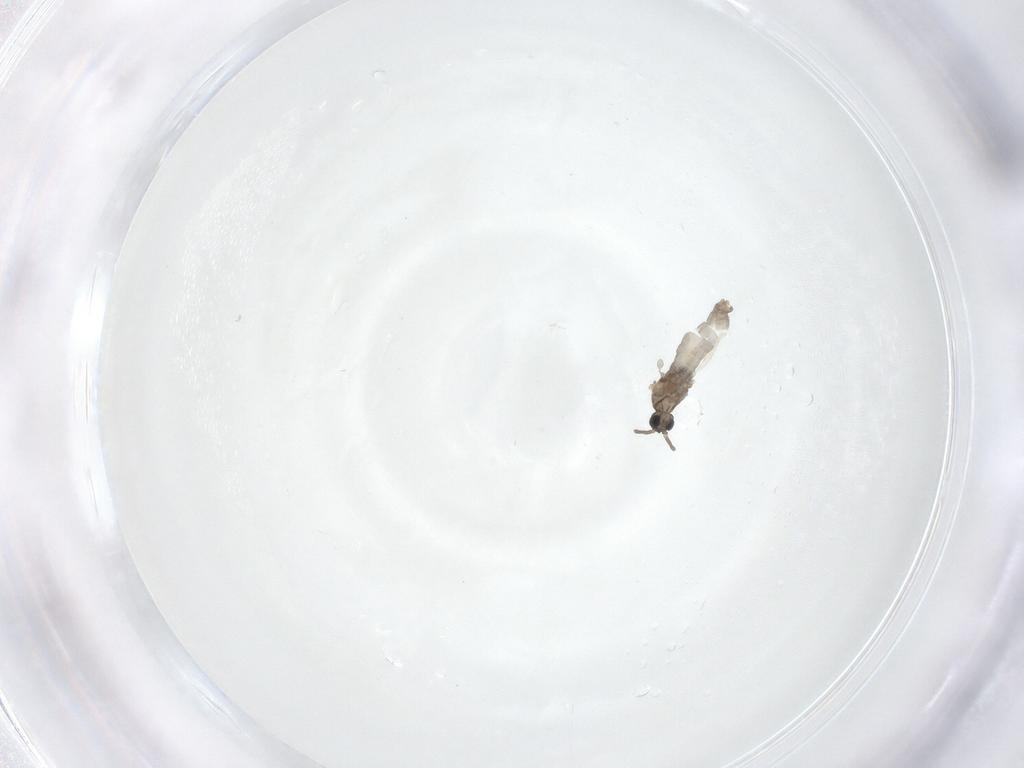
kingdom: Animalia
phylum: Arthropoda
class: Insecta
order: Diptera
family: Cecidomyiidae
